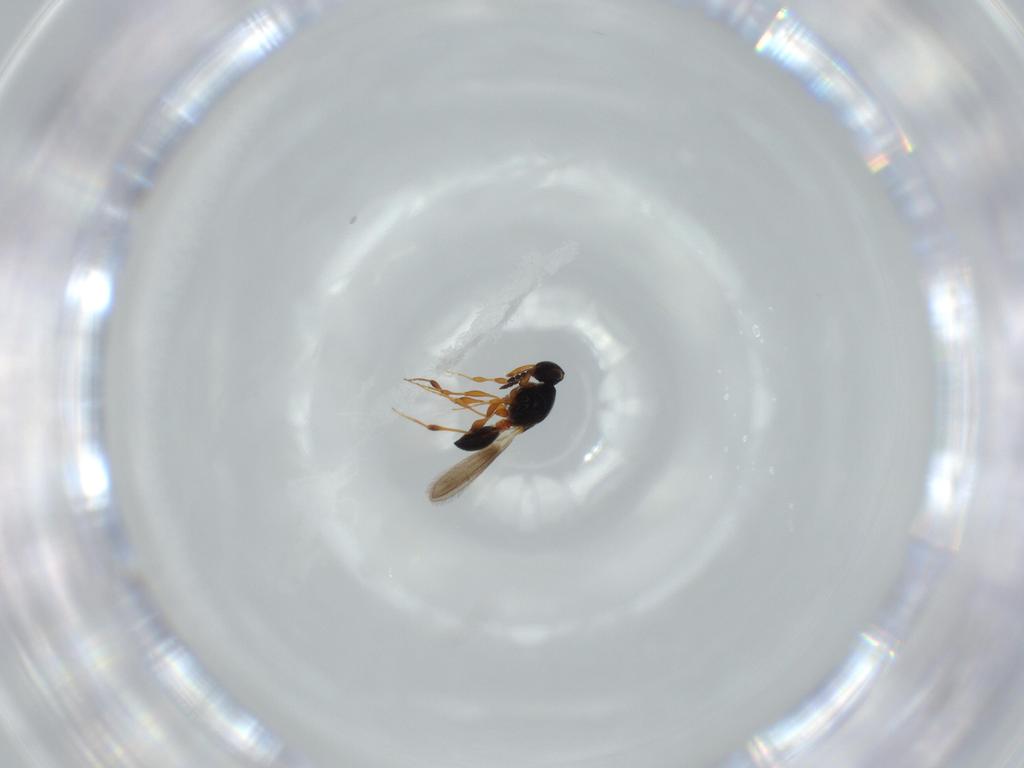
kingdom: Animalia
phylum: Arthropoda
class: Insecta
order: Hymenoptera
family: Platygastridae
